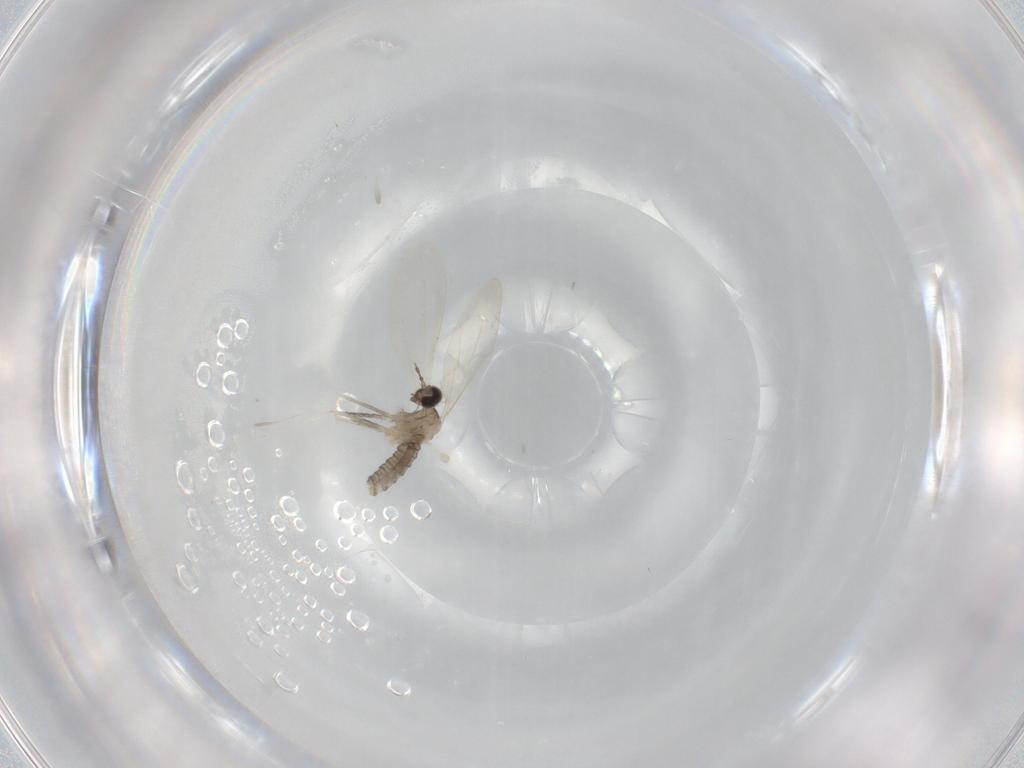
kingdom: Animalia
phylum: Arthropoda
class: Insecta
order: Diptera
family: Cecidomyiidae
